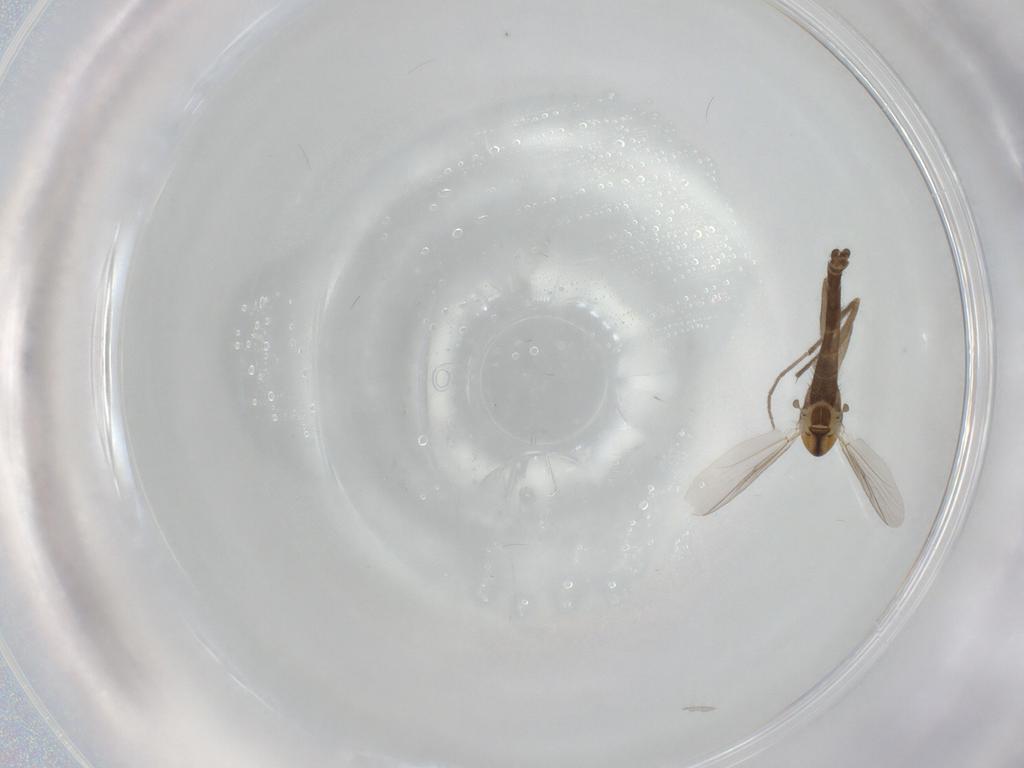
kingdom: Animalia
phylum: Arthropoda
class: Insecta
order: Diptera
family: Chironomidae
